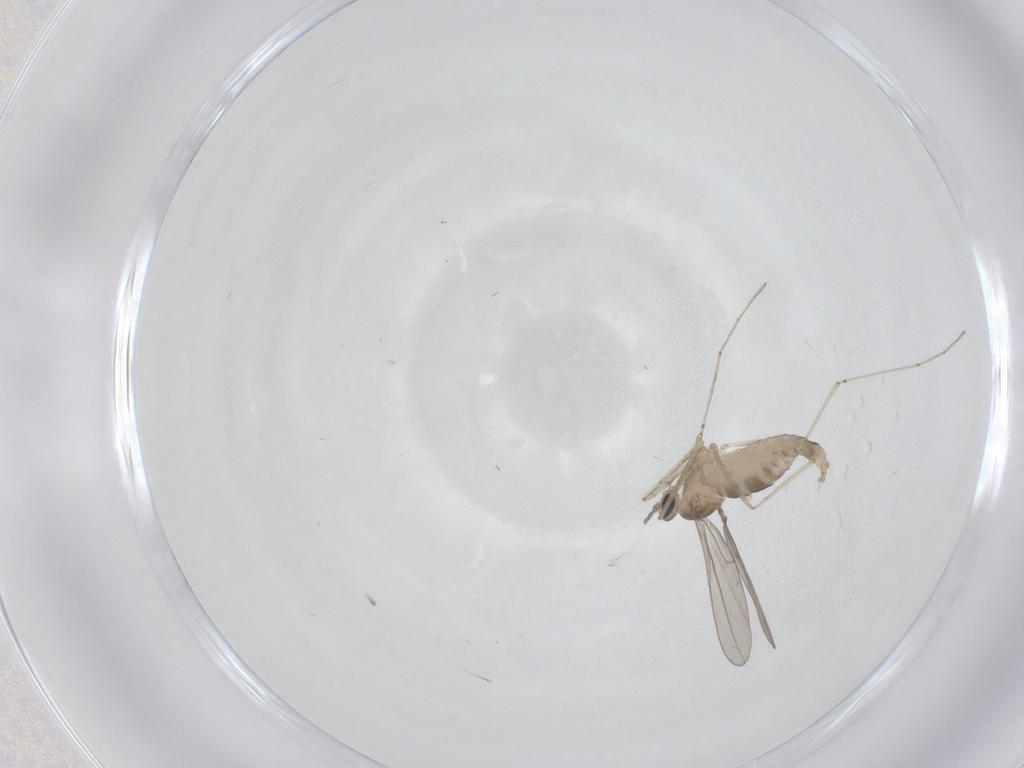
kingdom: Animalia
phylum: Arthropoda
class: Insecta
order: Diptera
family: Cecidomyiidae
